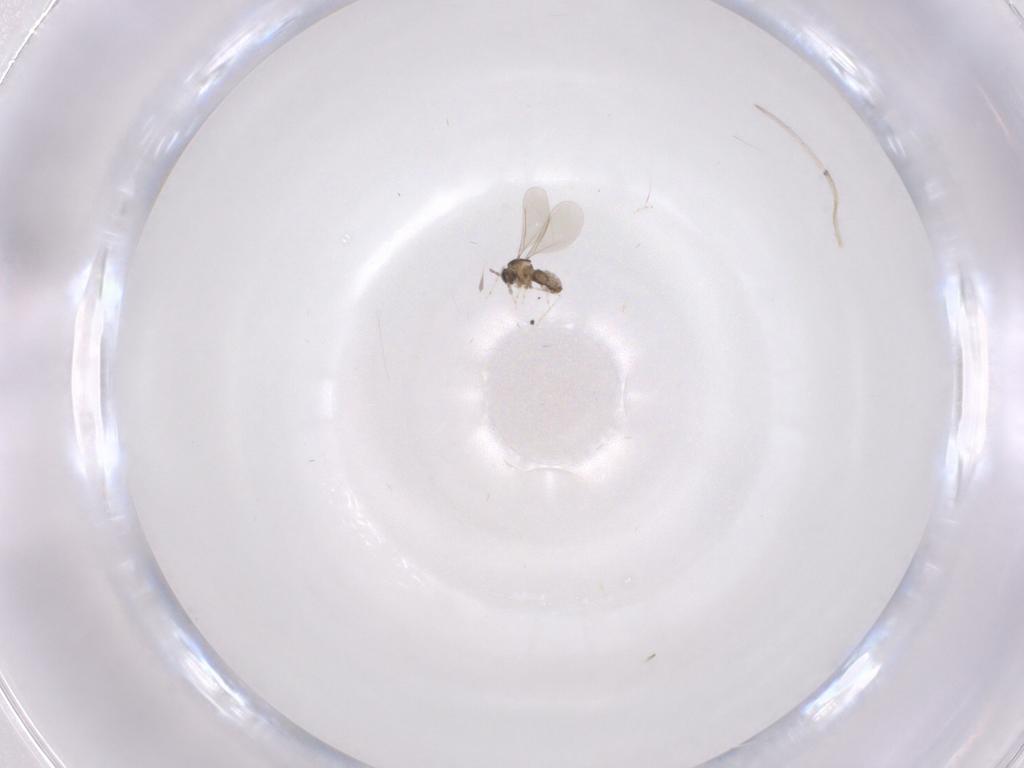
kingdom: Animalia
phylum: Arthropoda
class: Insecta
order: Diptera
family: Cecidomyiidae
